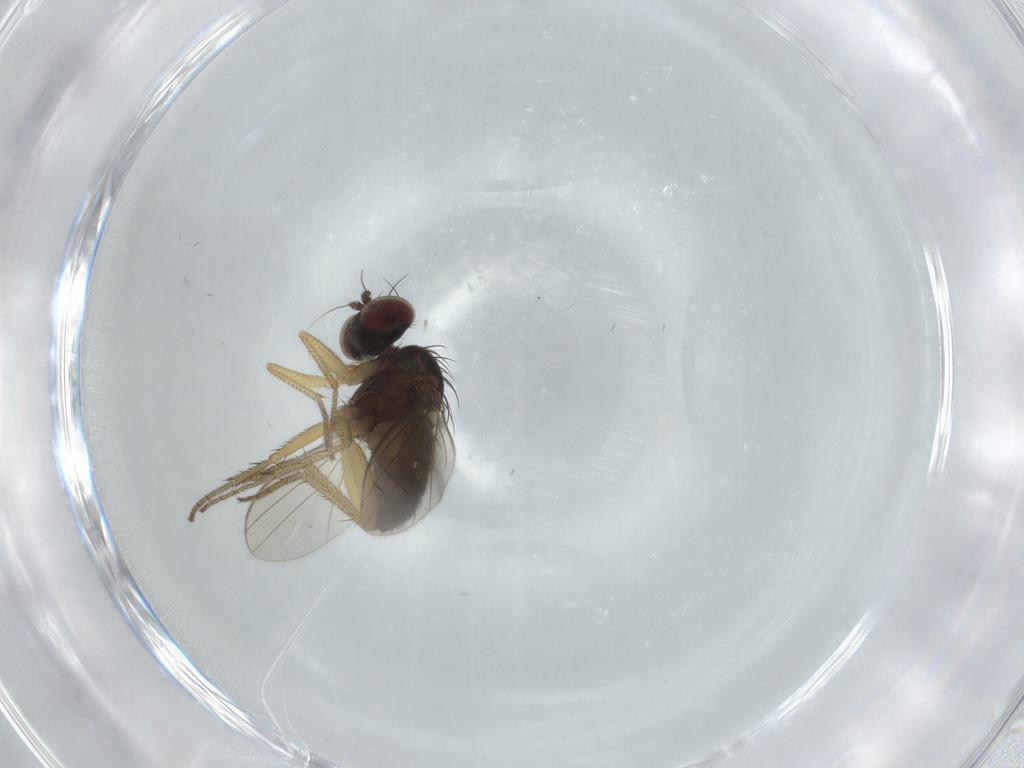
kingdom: Animalia
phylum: Arthropoda
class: Insecta
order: Diptera
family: Dolichopodidae
